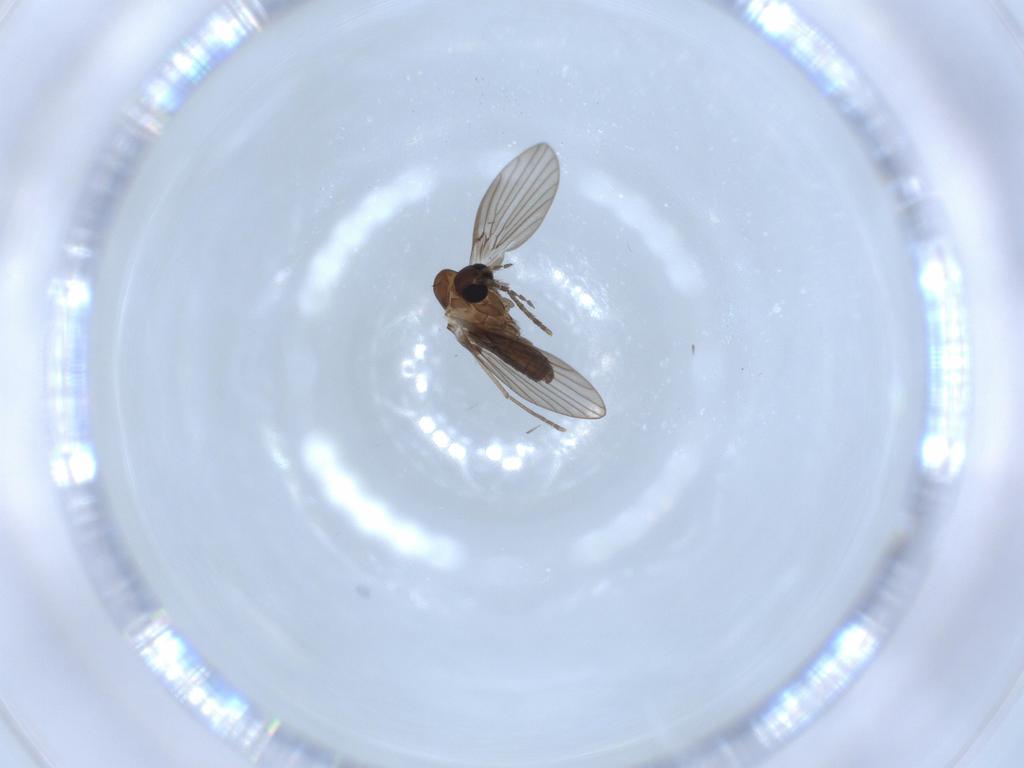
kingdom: Animalia
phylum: Arthropoda
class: Insecta
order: Diptera
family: Psychodidae
